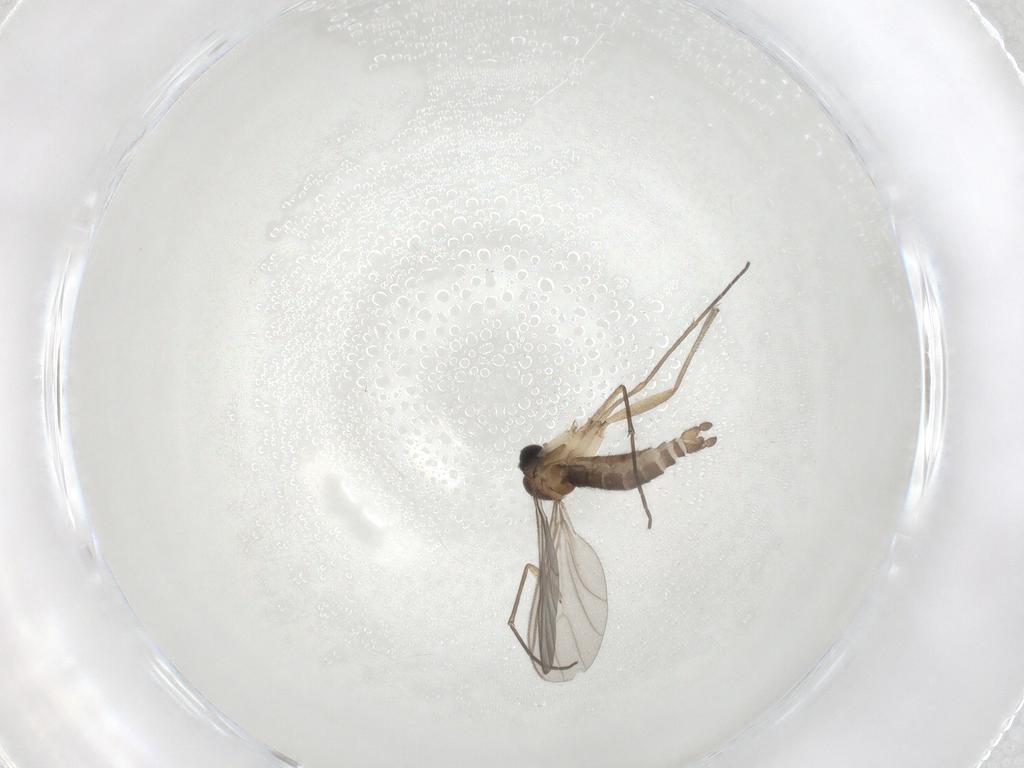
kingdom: Animalia
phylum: Arthropoda
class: Insecta
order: Diptera
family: Sciaridae
